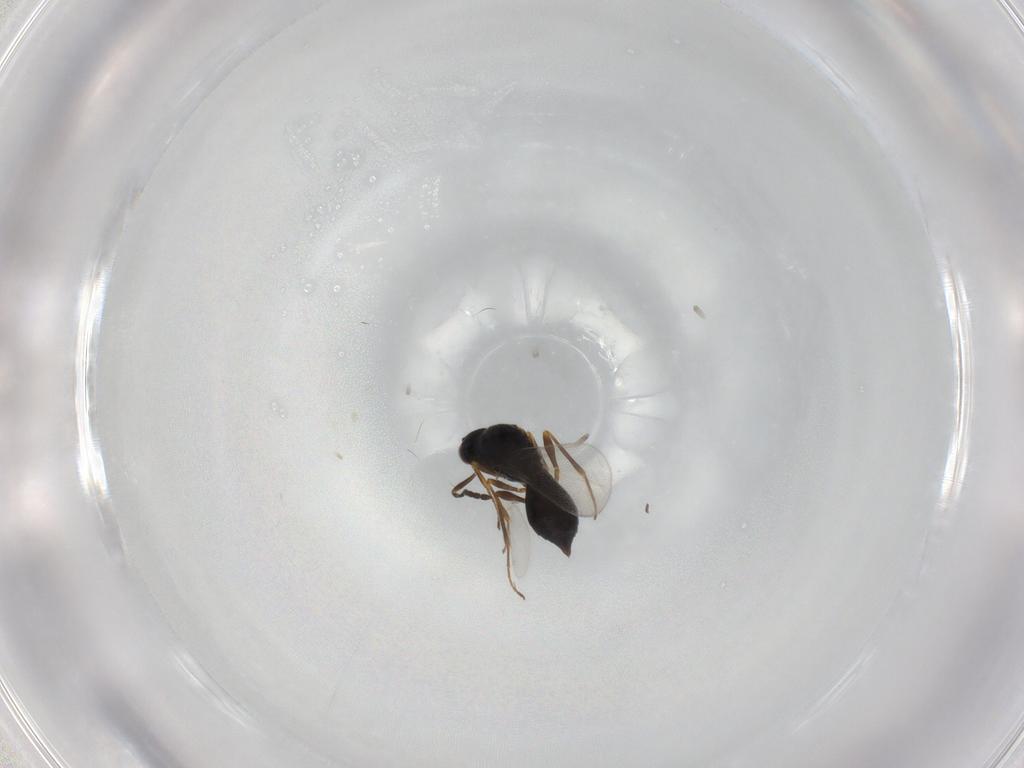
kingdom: Animalia
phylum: Arthropoda
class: Insecta
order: Hymenoptera
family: Platygastridae
